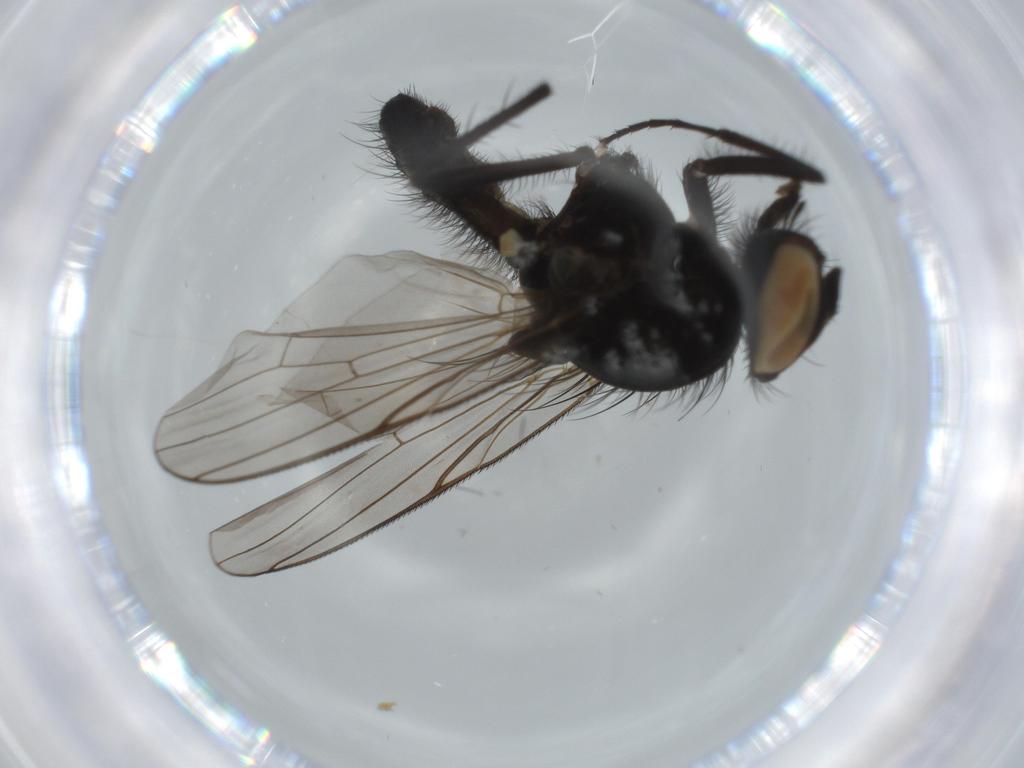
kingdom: Animalia
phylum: Arthropoda
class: Insecta
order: Diptera
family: Anthomyiidae
